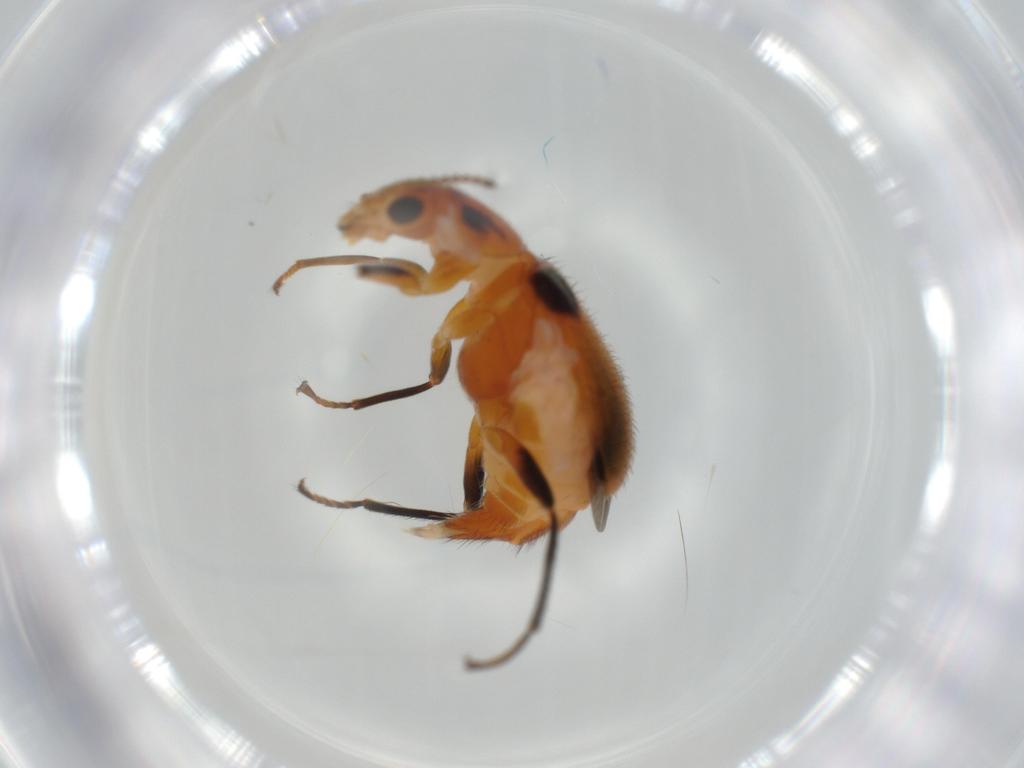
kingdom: Animalia
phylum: Arthropoda
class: Insecta
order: Coleoptera
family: Melyridae
